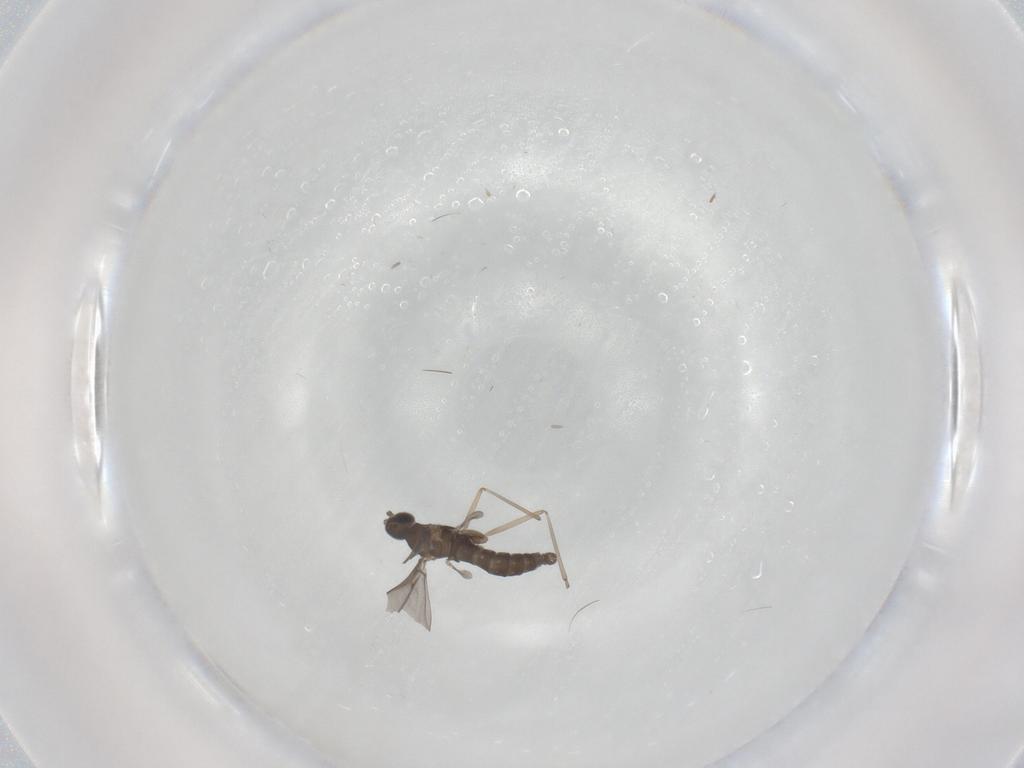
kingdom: Animalia
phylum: Arthropoda
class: Insecta
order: Diptera
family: Cecidomyiidae
